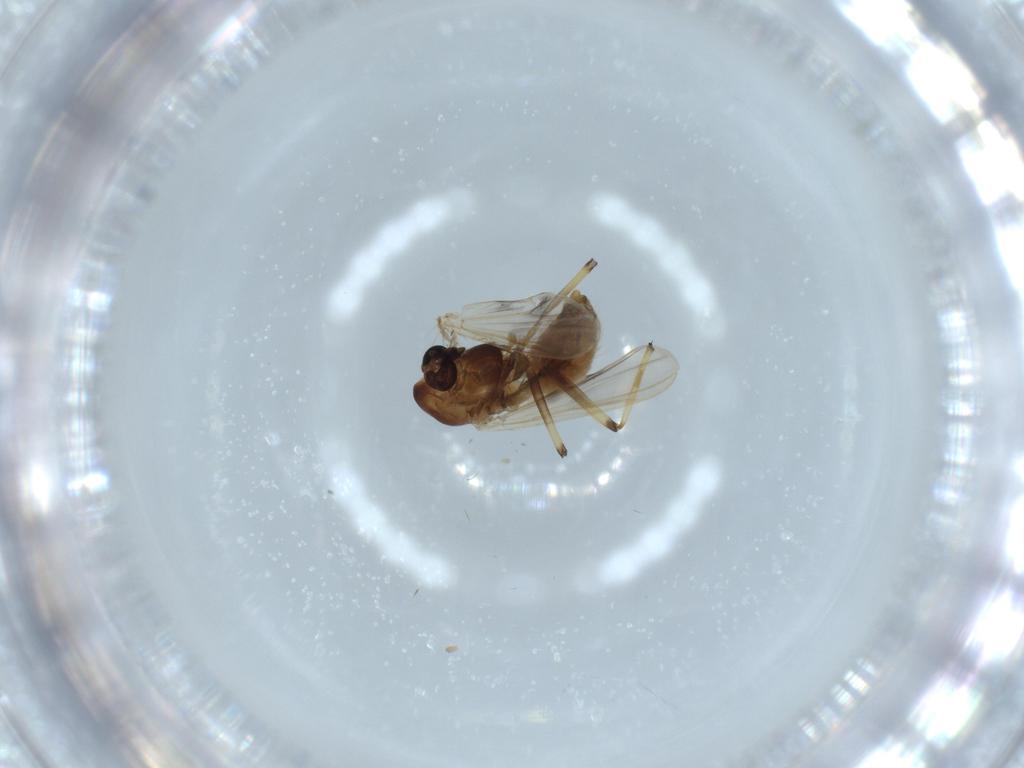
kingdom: Animalia
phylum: Arthropoda
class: Insecta
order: Diptera
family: Chironomidae
